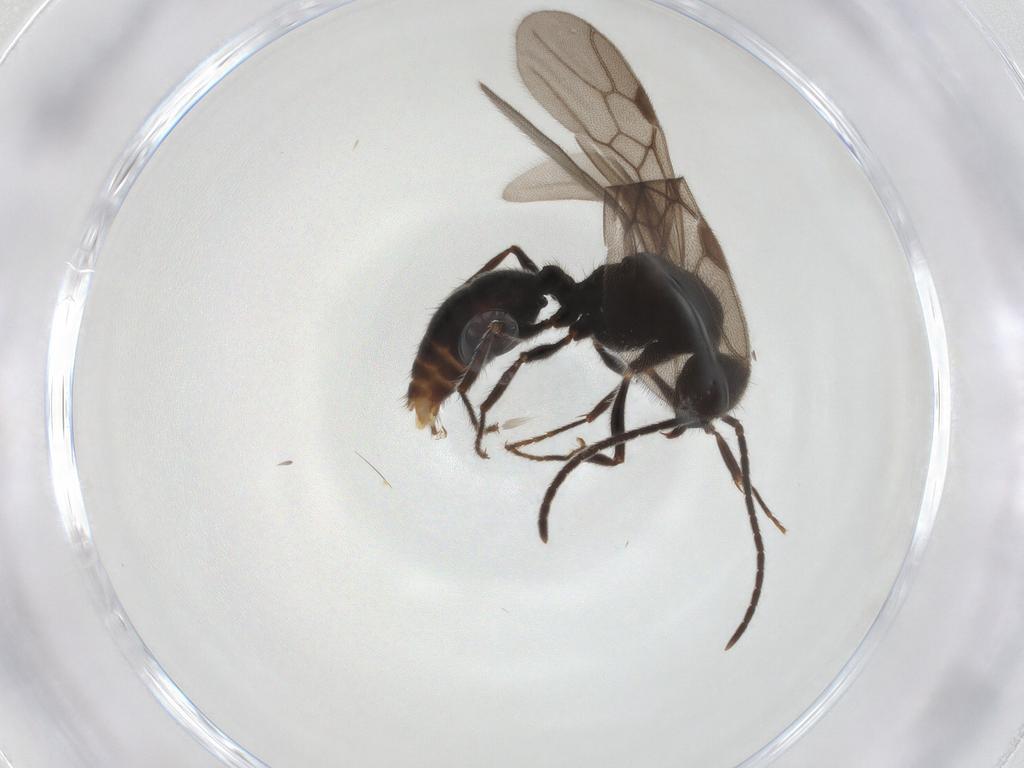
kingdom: Animalia
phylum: Arthropoda
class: Insecta
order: Hymenoptera
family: Formicidae
